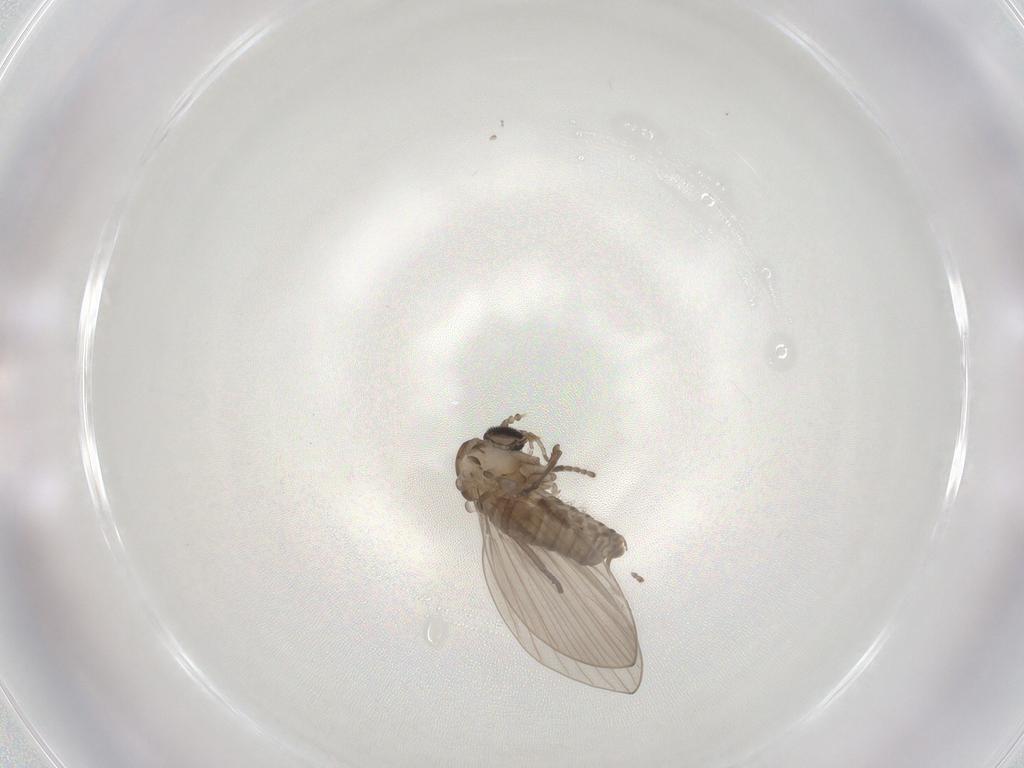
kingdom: Animalia
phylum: Arthropoda
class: Insecta
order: Diptera
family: Psychodidae
